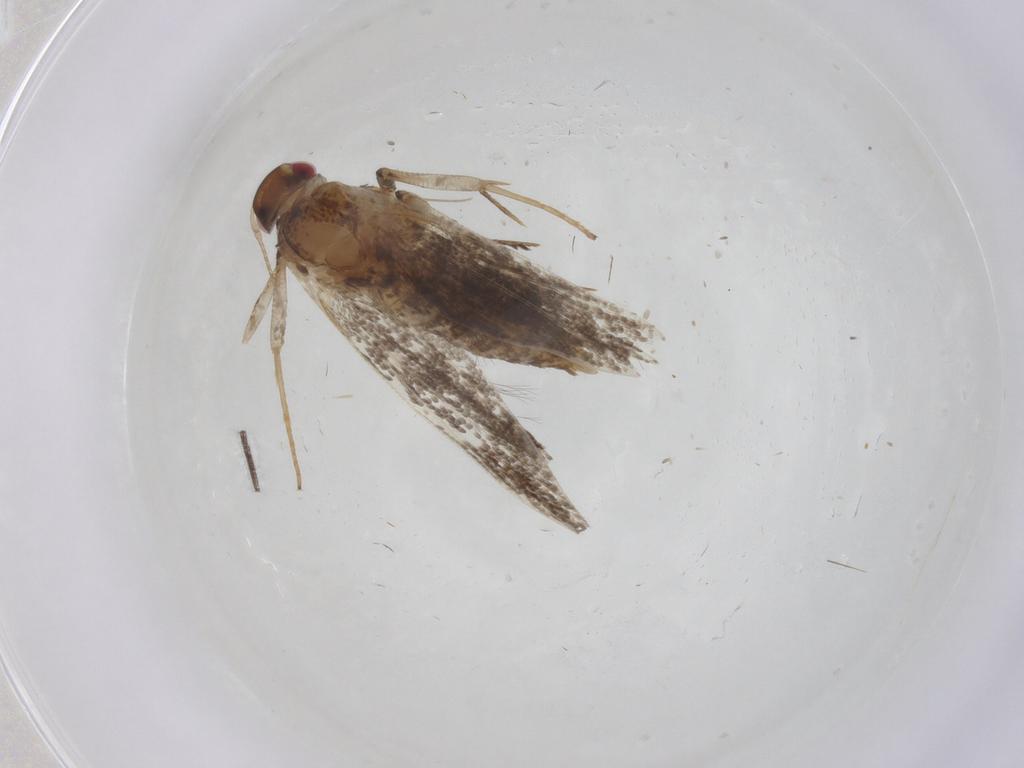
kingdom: Animalia
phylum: Arthropoda
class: Insecta
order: Lepidoptera
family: Gelechiidae
